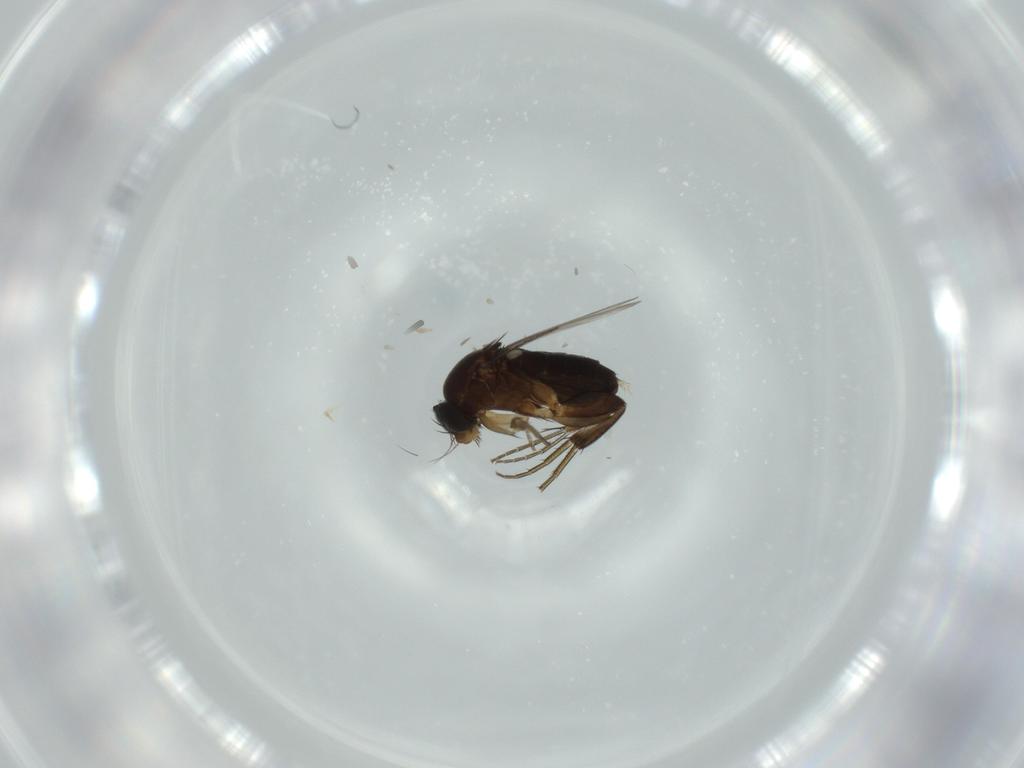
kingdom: Animalia
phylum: Arthropoda
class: Insecta
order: Diptera
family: Phoridae
